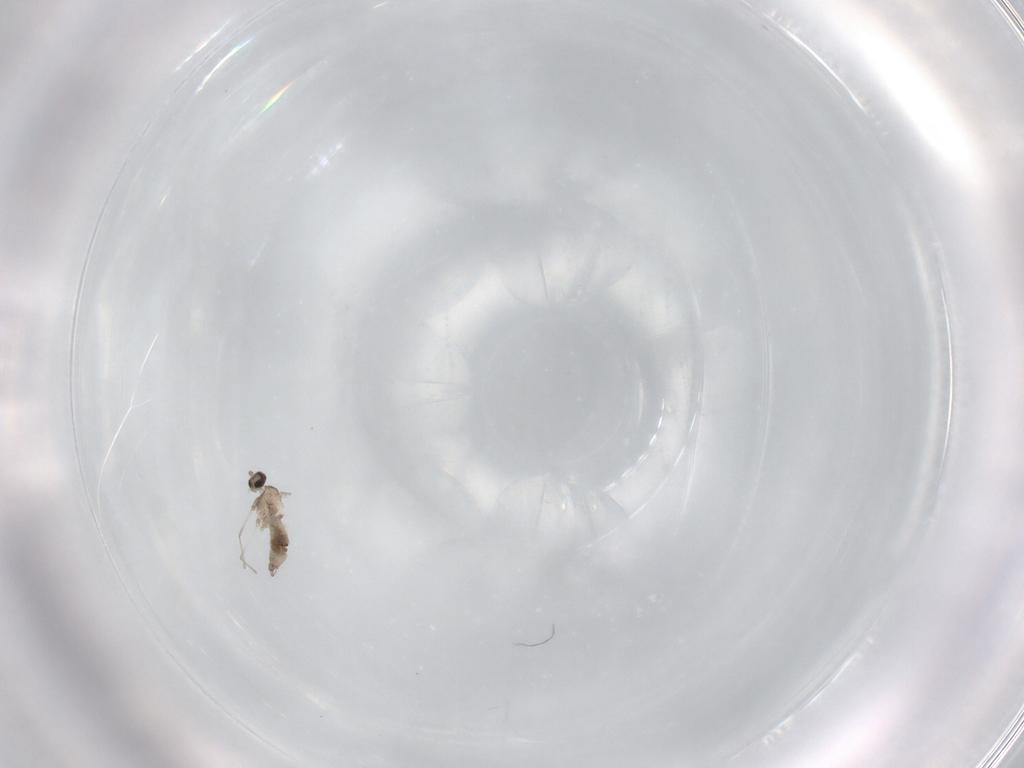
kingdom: Animalia
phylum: Arthropoda
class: Insecta
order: Diptera
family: Cecidomyiidae
